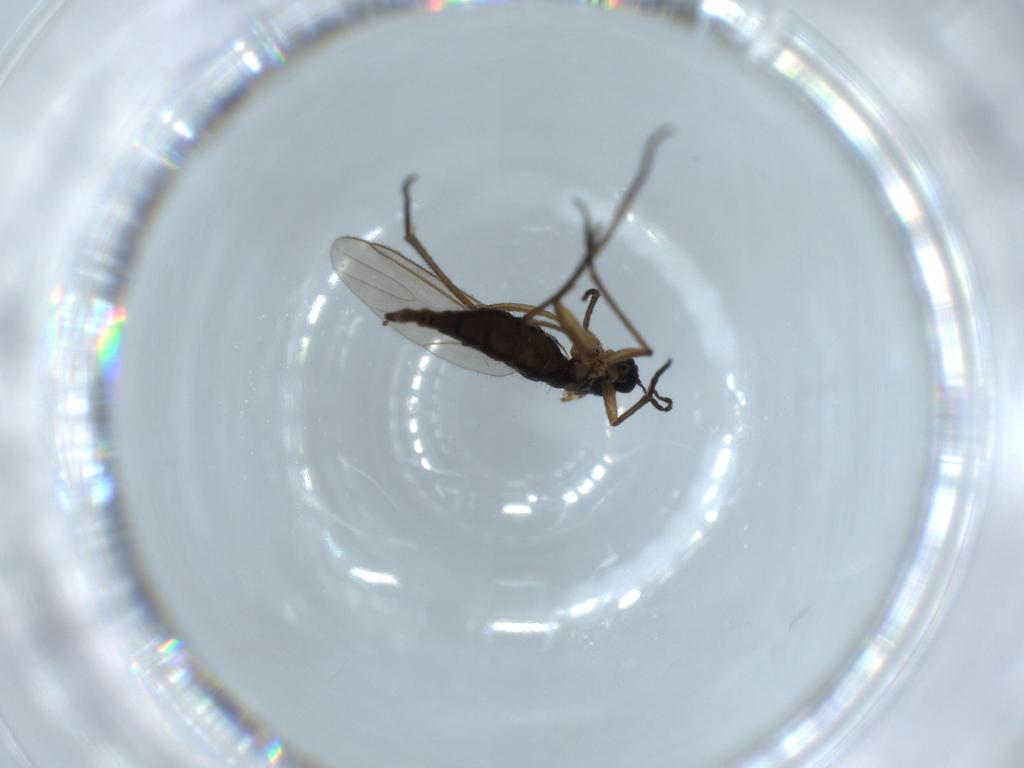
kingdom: Animalia
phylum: Arthropoda
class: Insecta
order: Diptera
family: Sciaridae
